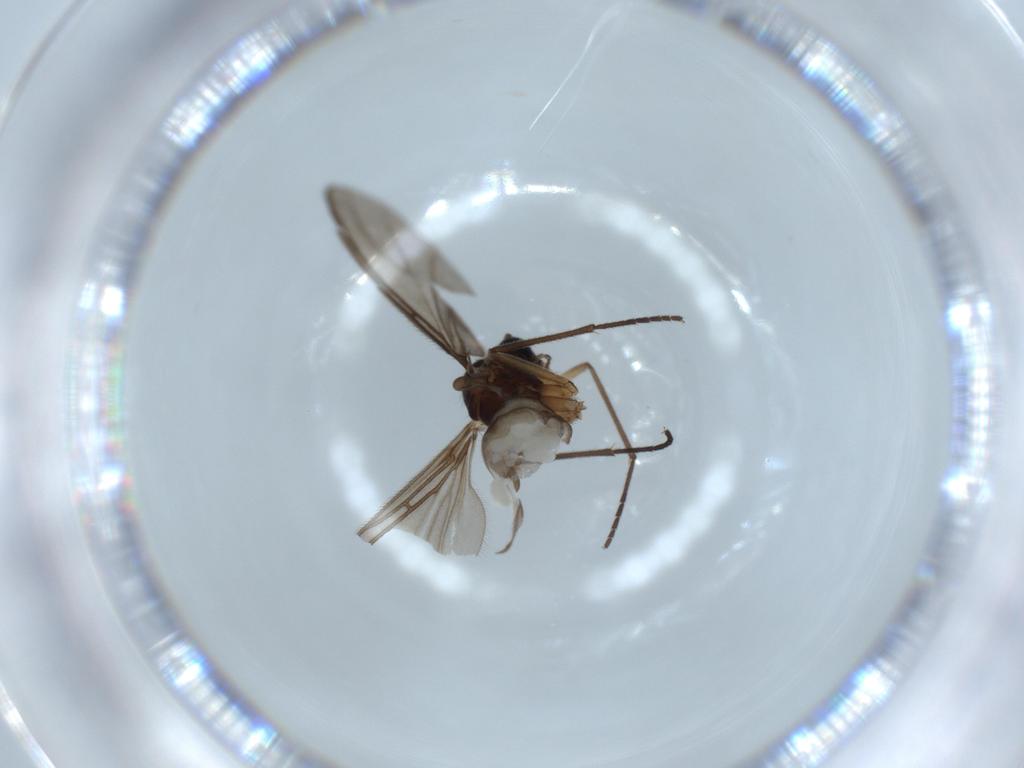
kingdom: Animalia
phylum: Arthropoda
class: Insecta
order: Diptera
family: Sciaridae
